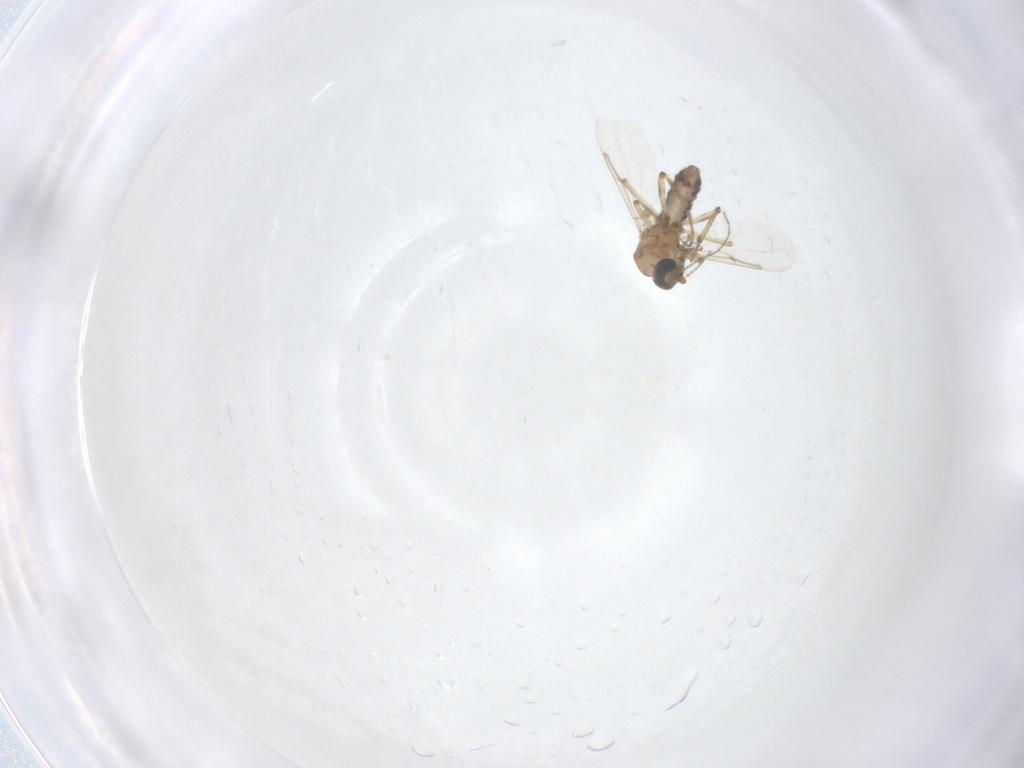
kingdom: Animalia
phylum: Arthropoda
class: Insecta
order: Diptera
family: Ceratopogonidae
